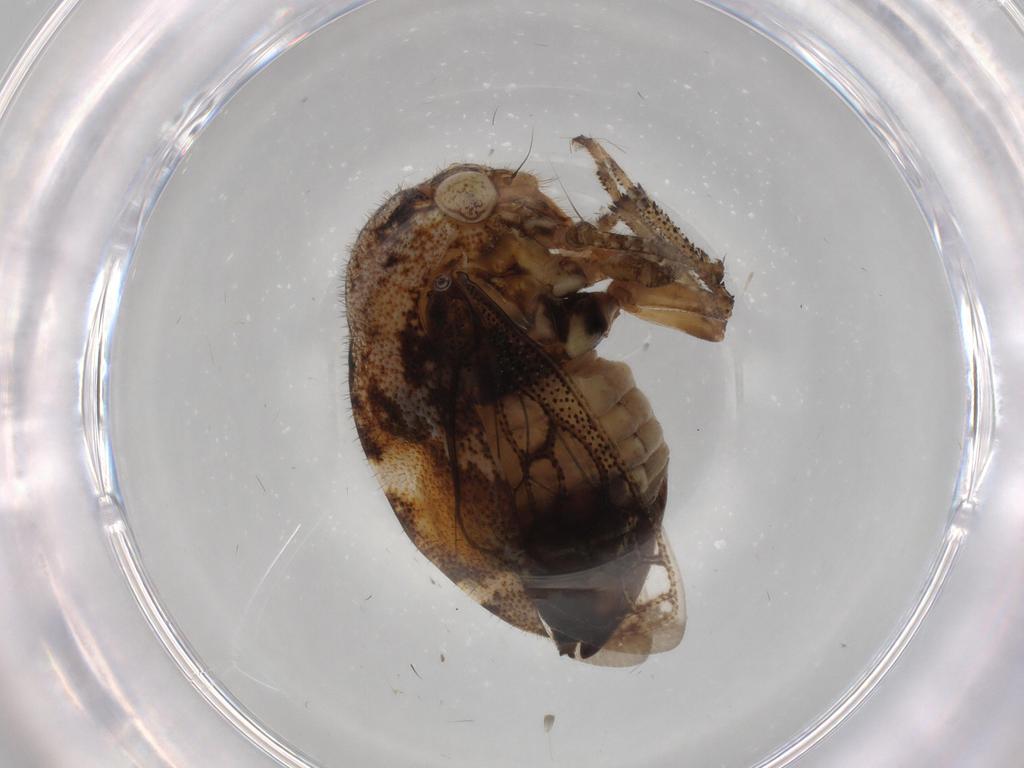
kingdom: Animalia
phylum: Arthropoda
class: Insecta
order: Hemiptera
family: Membracidae
